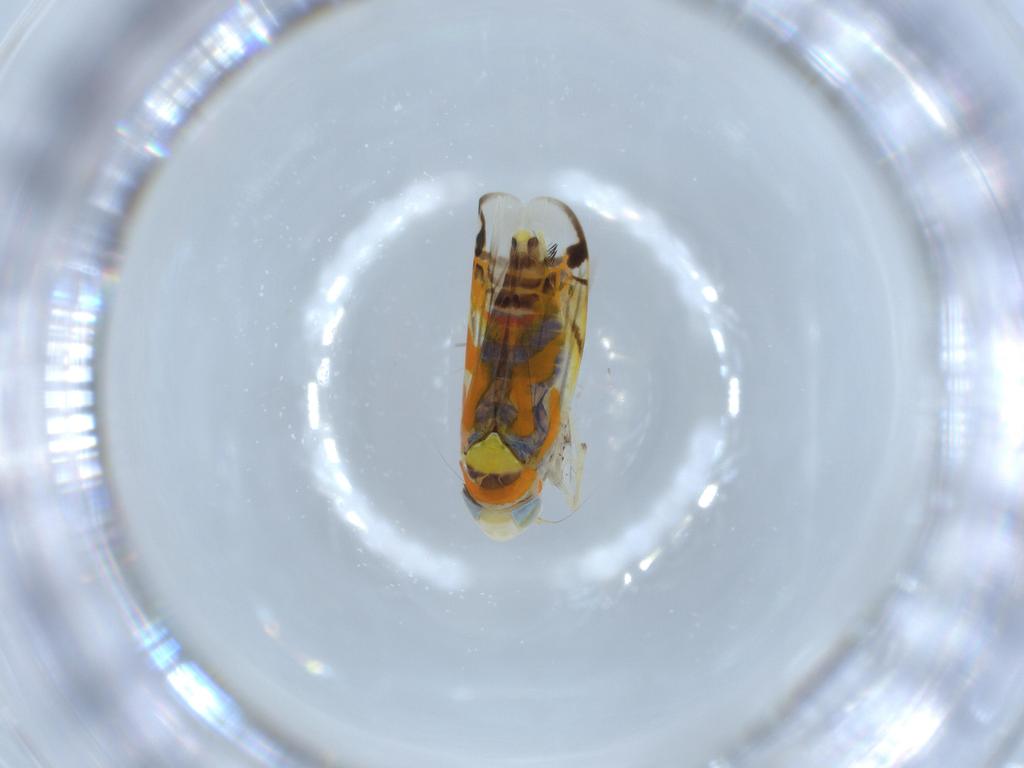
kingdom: Animalia
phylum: Arthropoda
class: Insecta
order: Hemiptera
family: Cicadellidae
